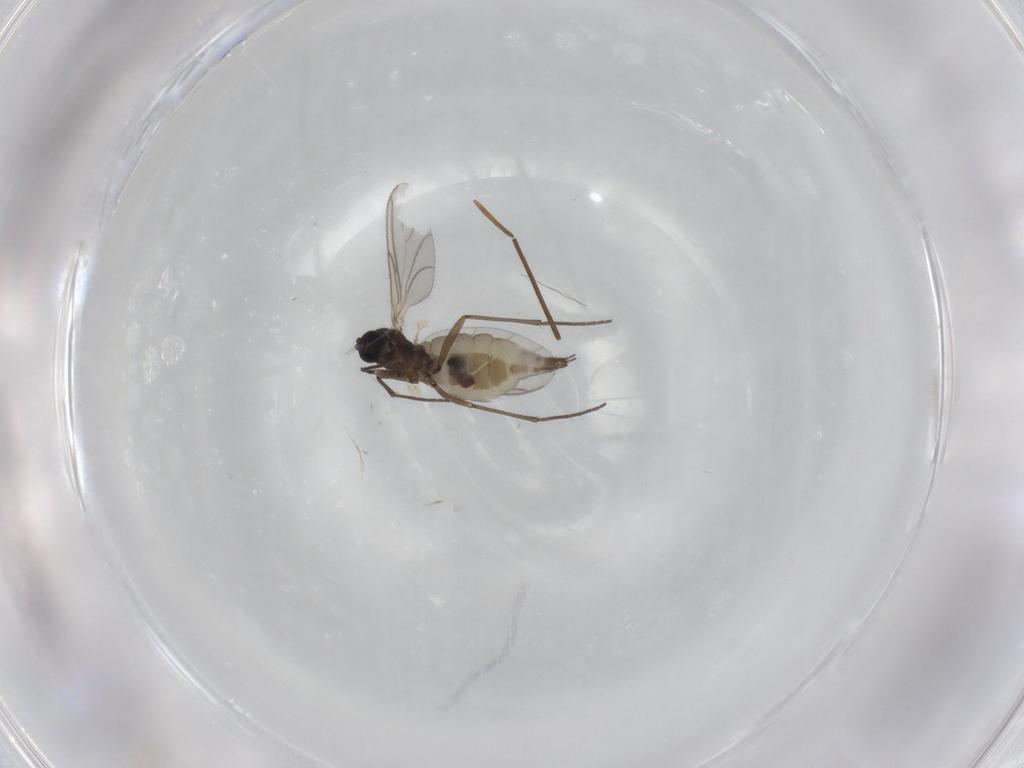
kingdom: Animalia
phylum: Arthropoda
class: Insecta
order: Diptera
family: Sciaridae
